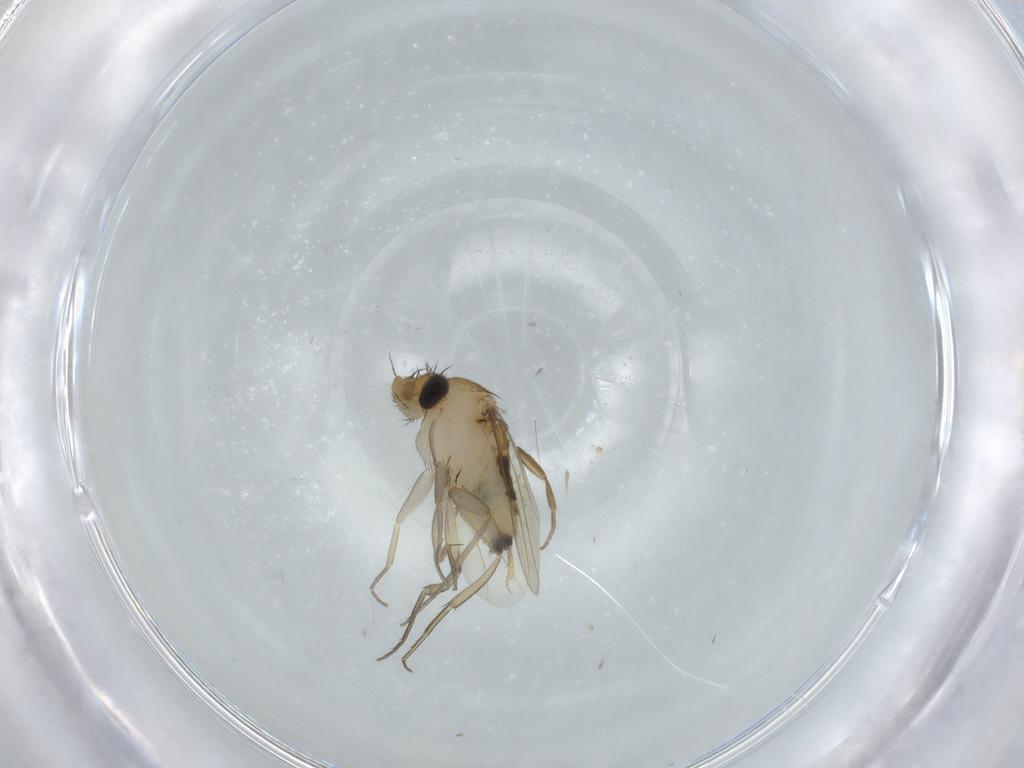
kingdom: Animalia
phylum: Arthropoda
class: Insecta
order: Diptera
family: Phoridae
